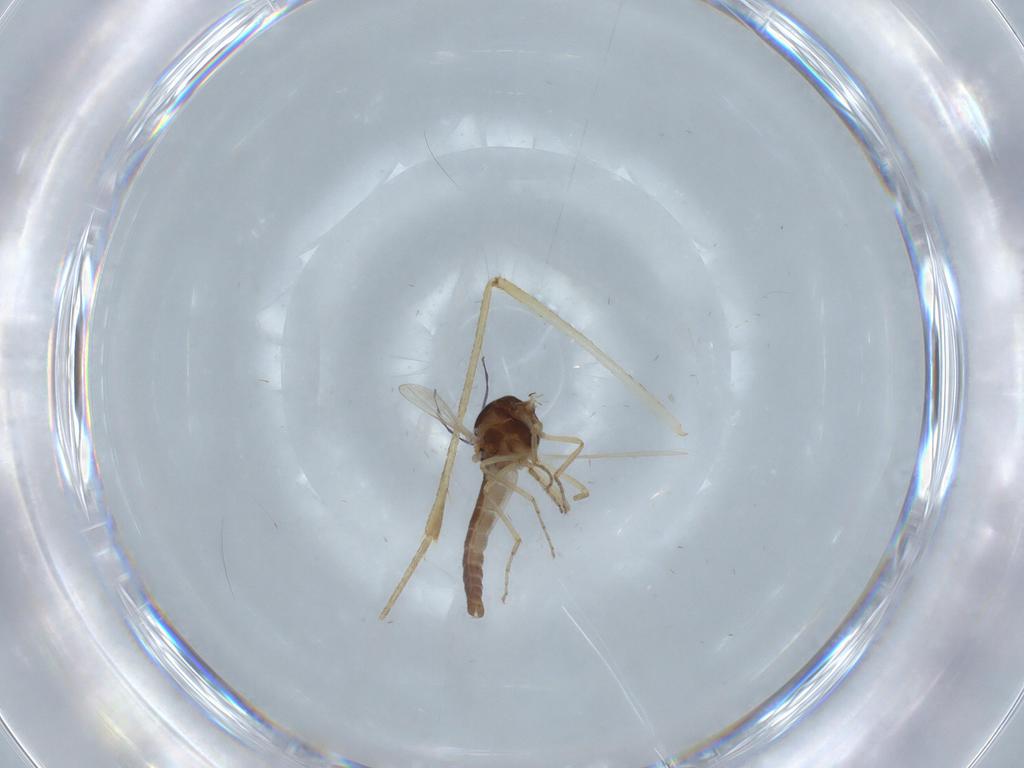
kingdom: Animalia
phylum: Arthropoda
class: Insecta
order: Diptera
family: Culicidae
